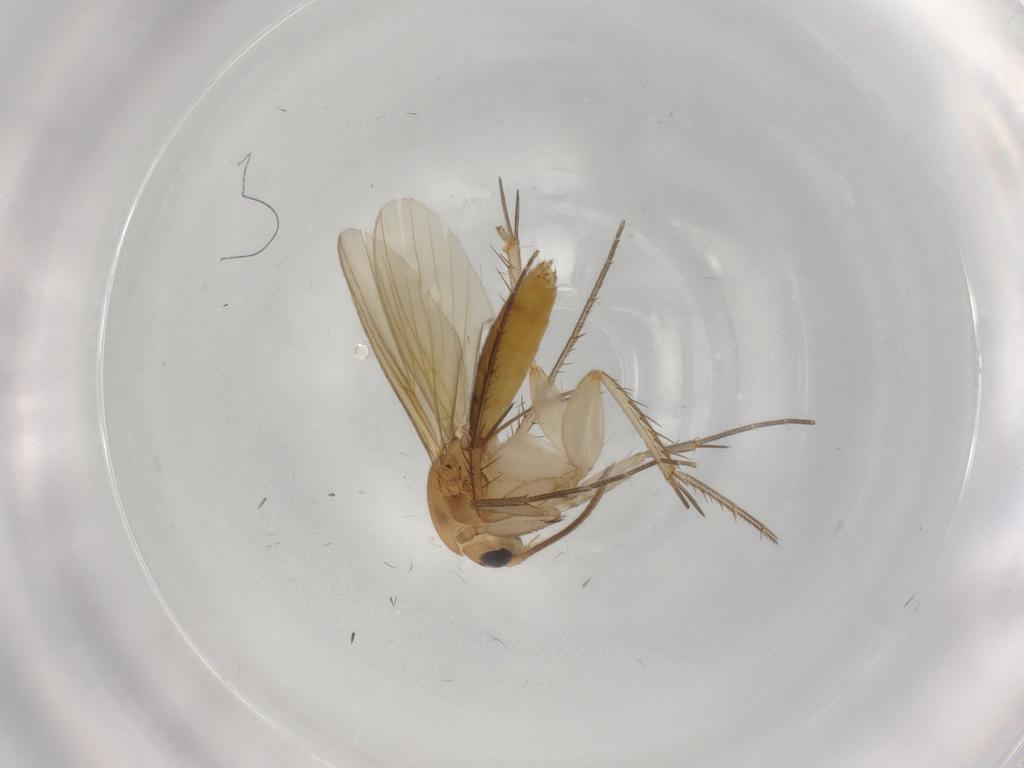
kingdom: Animalia
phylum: Arthropoda
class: Insecta
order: Diptera
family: Mycetophilidae
